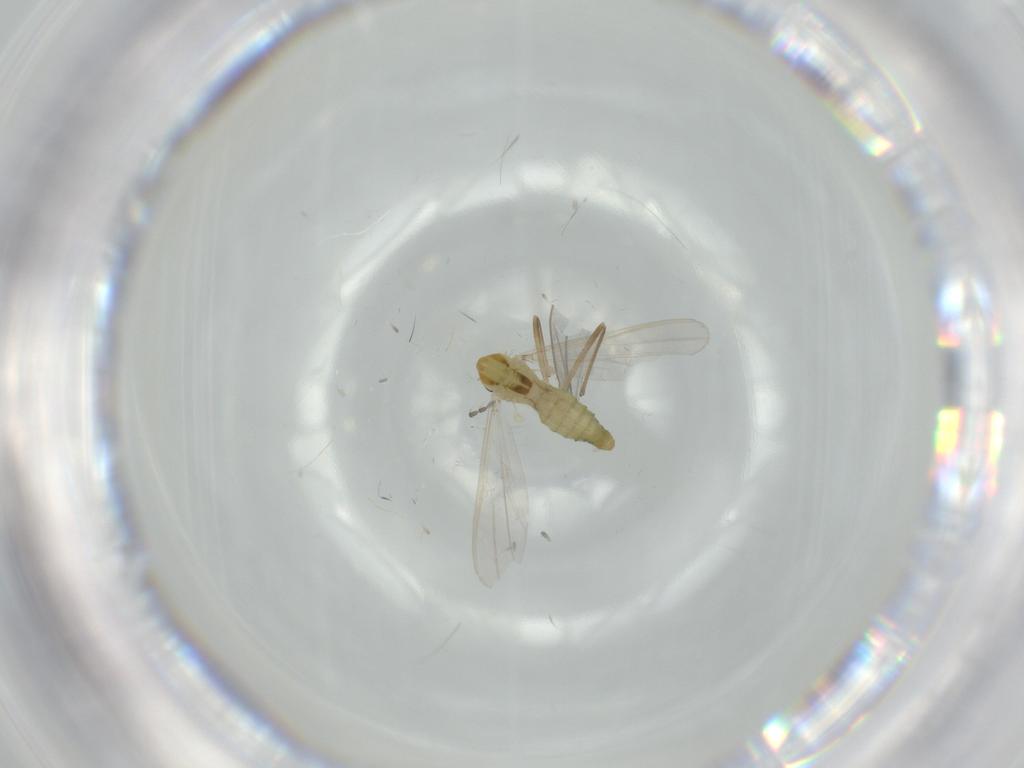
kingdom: Animalia
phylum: Arthropoda
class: Insecta
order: Diptera
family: Chironomidae
